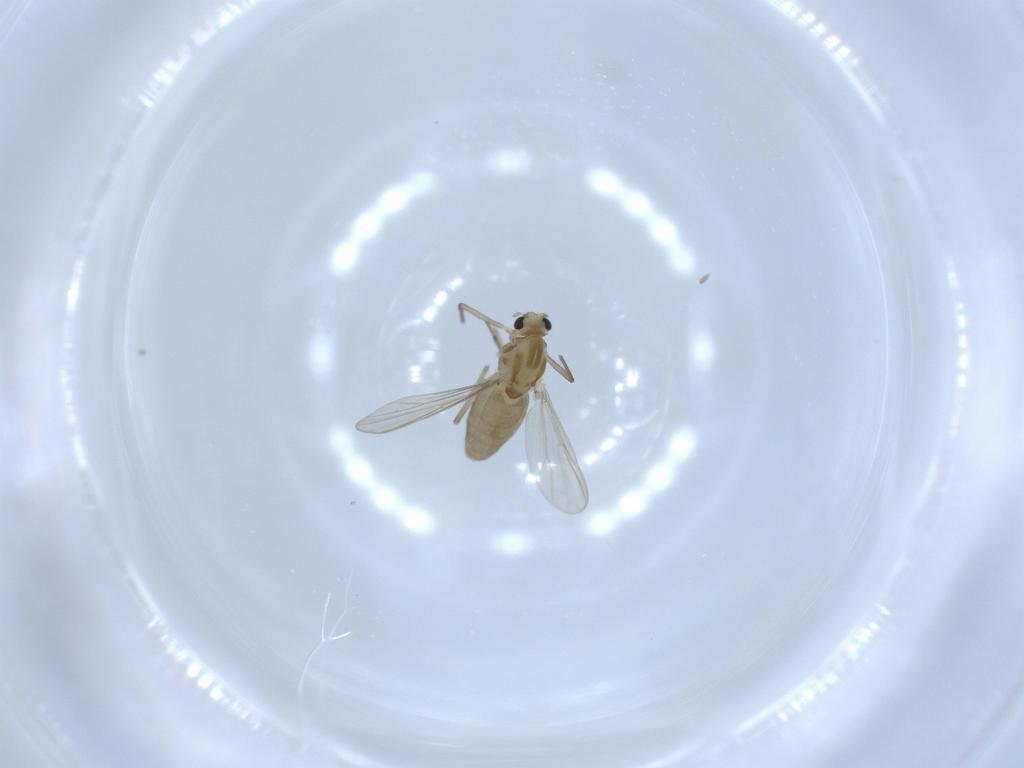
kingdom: Animalia
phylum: Arthropoda
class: Insecta
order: Diptera
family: Chironomidae
